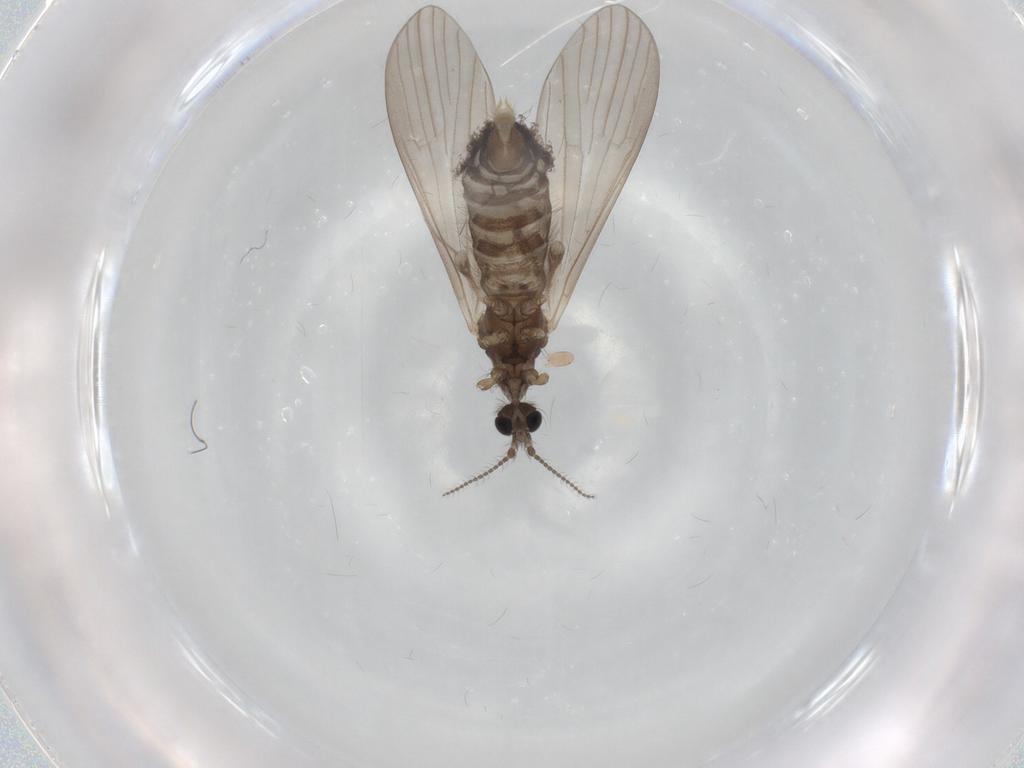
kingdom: Animalia
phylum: Arthropoda
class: Insecta
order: Diptera
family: Limoniidae
